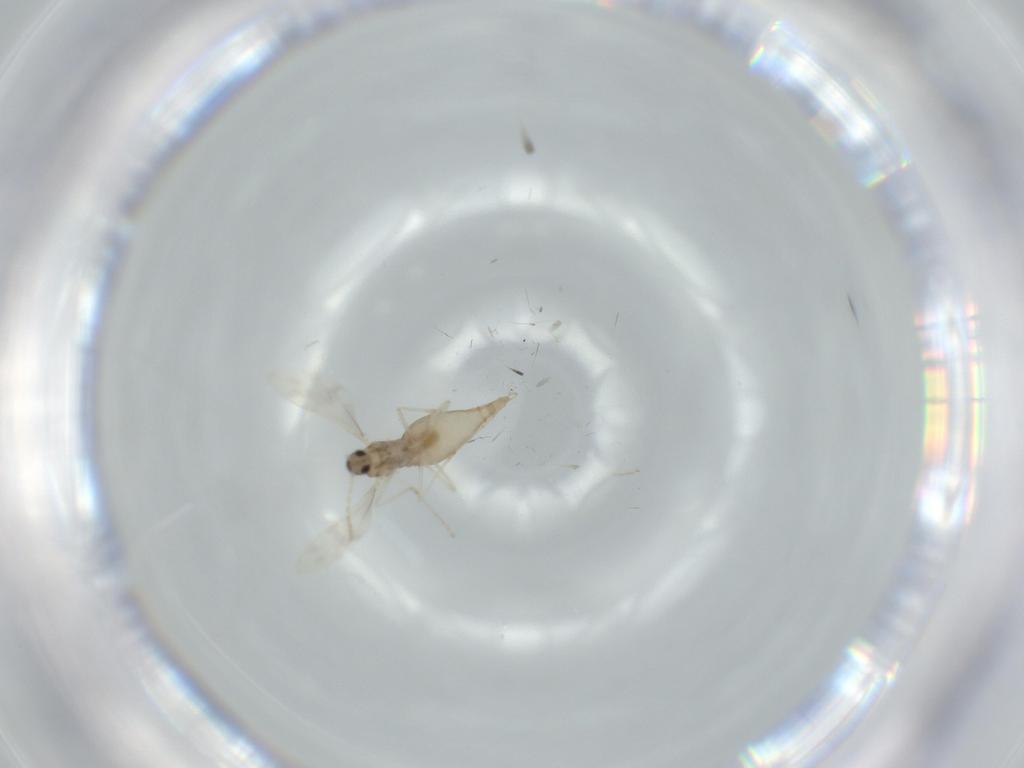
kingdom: Animalia
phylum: Arthropoda
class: Insecta
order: Diptera
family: Cecidomyiidae
